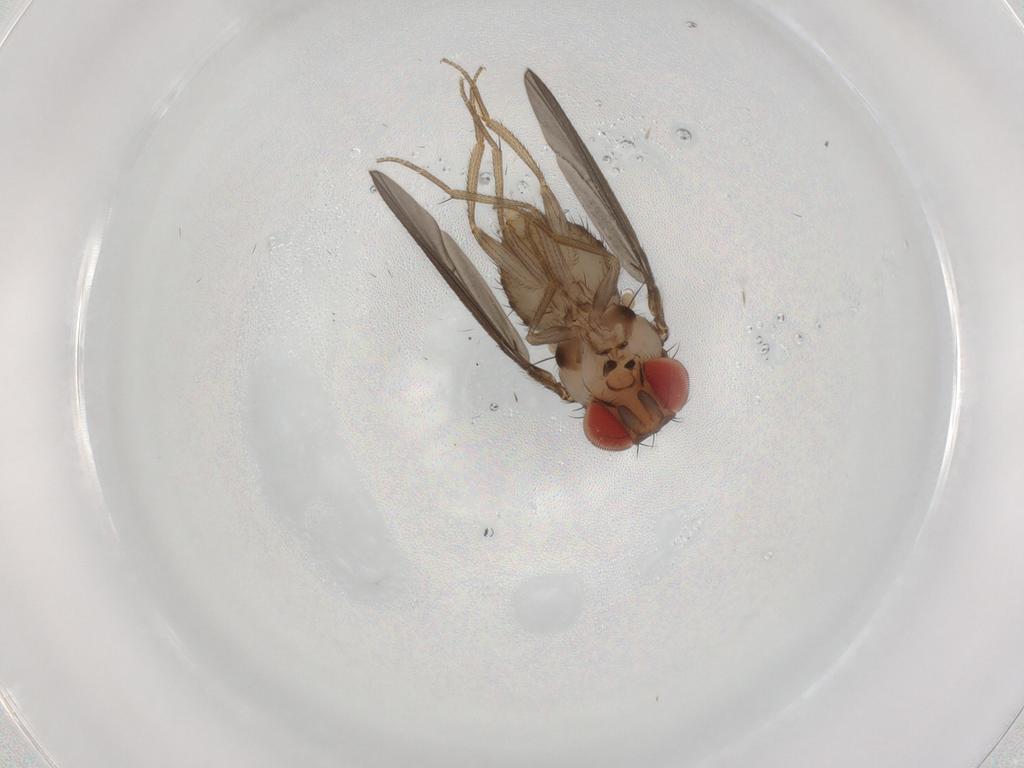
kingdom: Animalia
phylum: Arthropoda
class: Insecta
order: Diptera
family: Drosophilidae
